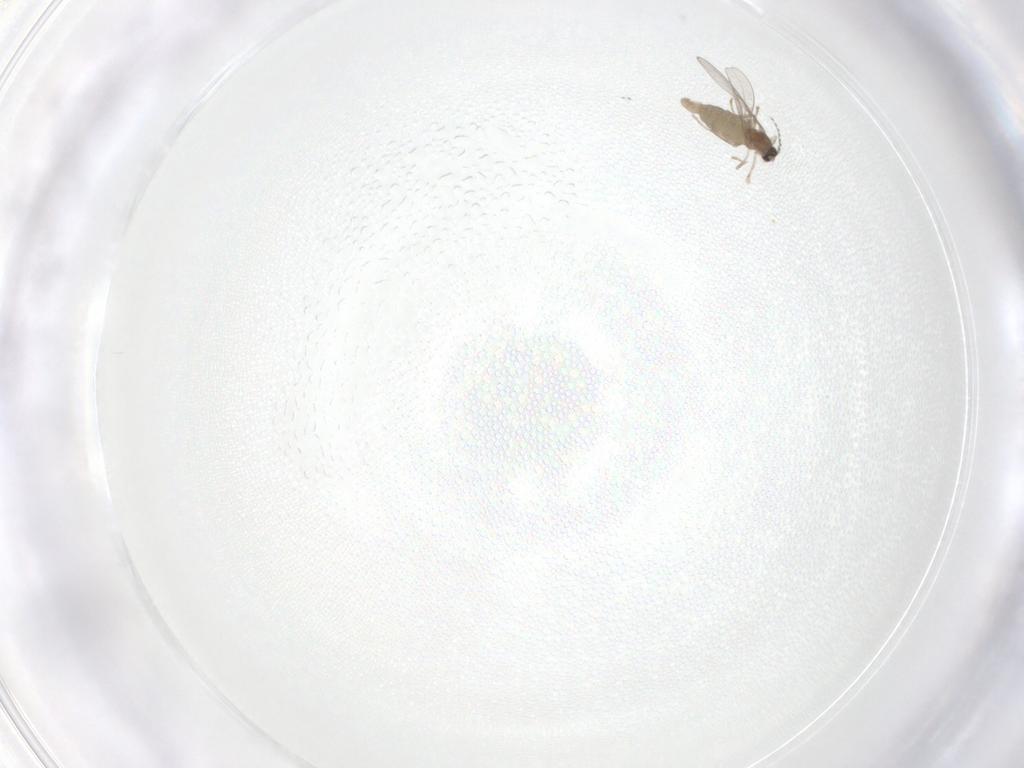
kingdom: Animalia
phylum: Arthropoda
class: Insecta
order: Diptera
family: Cecidomyiidae
